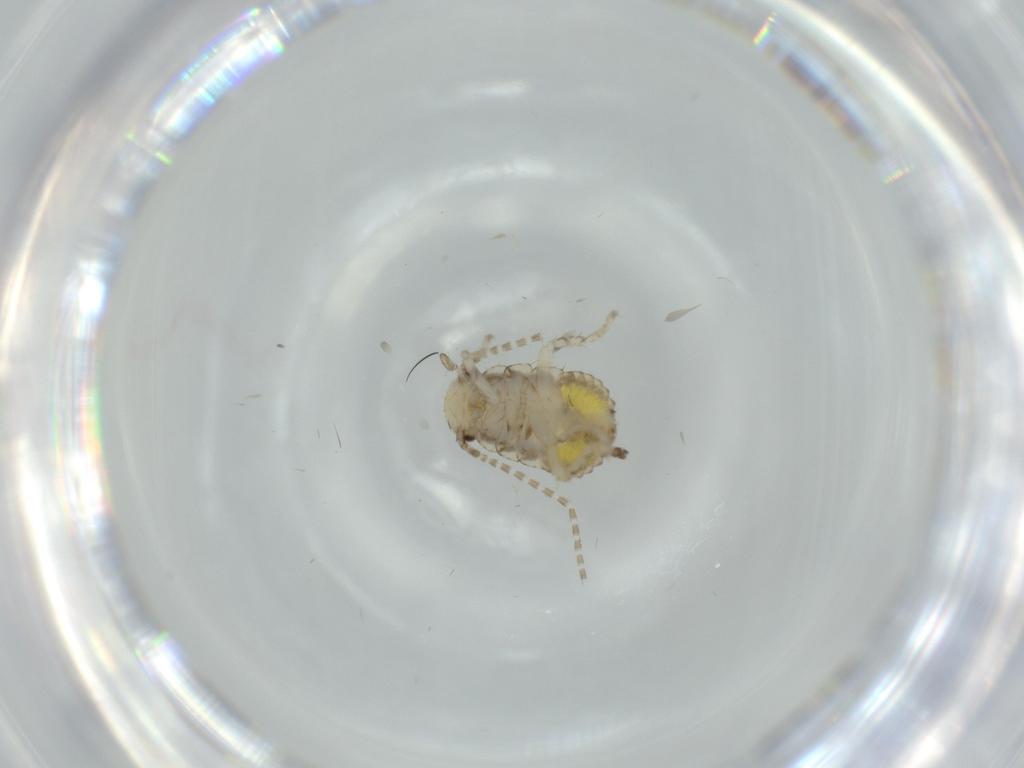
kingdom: Animalia
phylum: Arthropoda
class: Insecta
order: Blattodea
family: Ectobiidae
